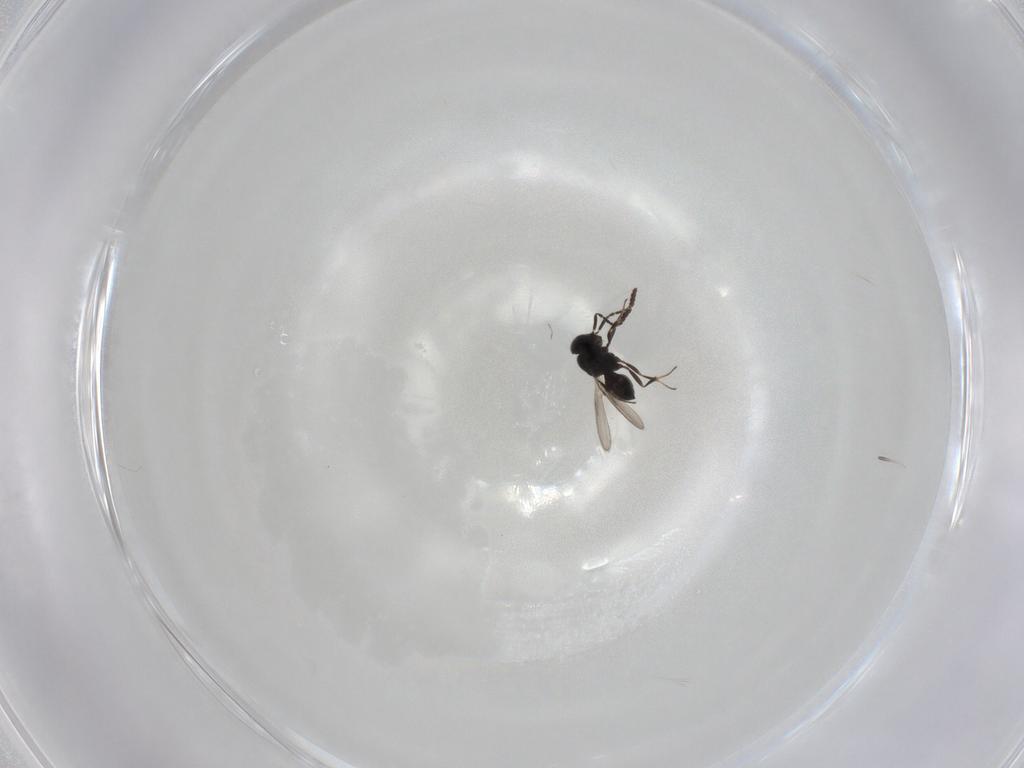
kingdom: Animalia
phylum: Arthropoda
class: Insecta
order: Hymenoptera
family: Scelionidae
